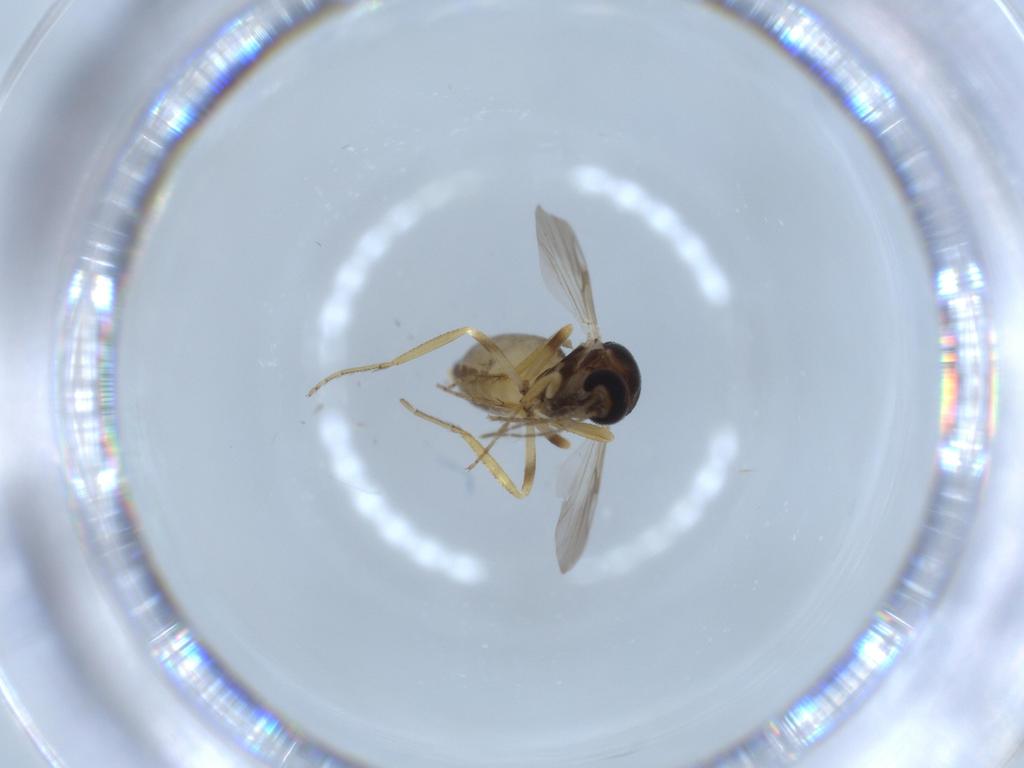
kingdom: Animalia
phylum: Arthropoda
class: Insecta
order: Diptera
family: Ceratopogonidae
